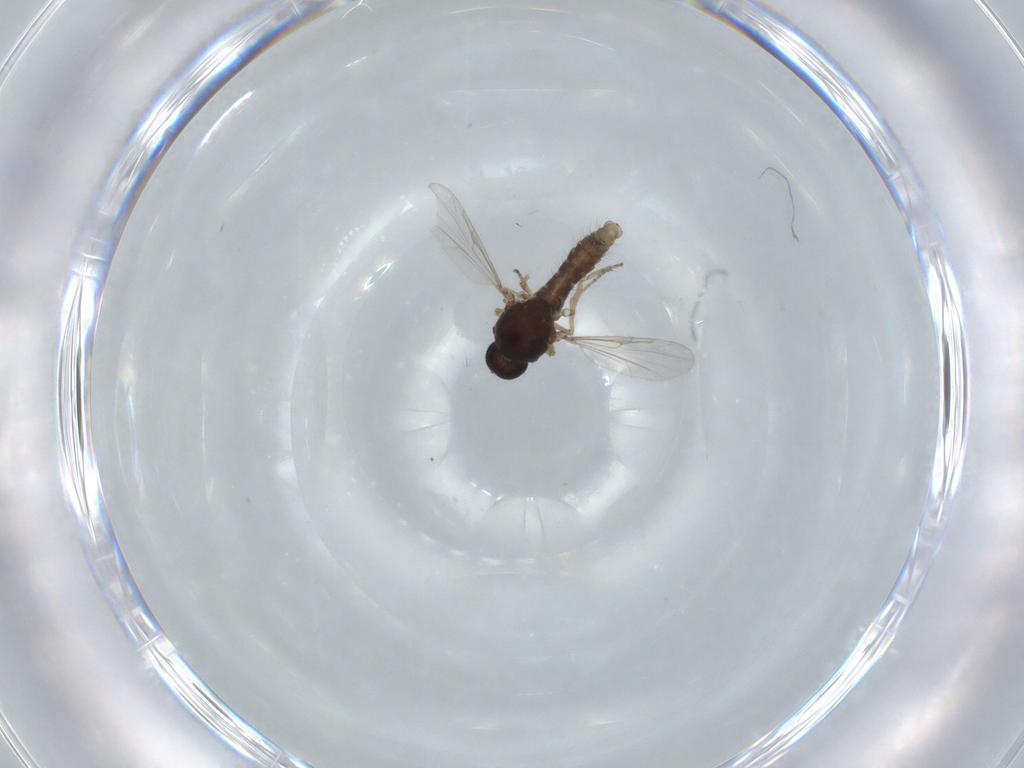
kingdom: Animalia
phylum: Arthropoda
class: Insecta
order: Diptera
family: Ceratopogonidae
